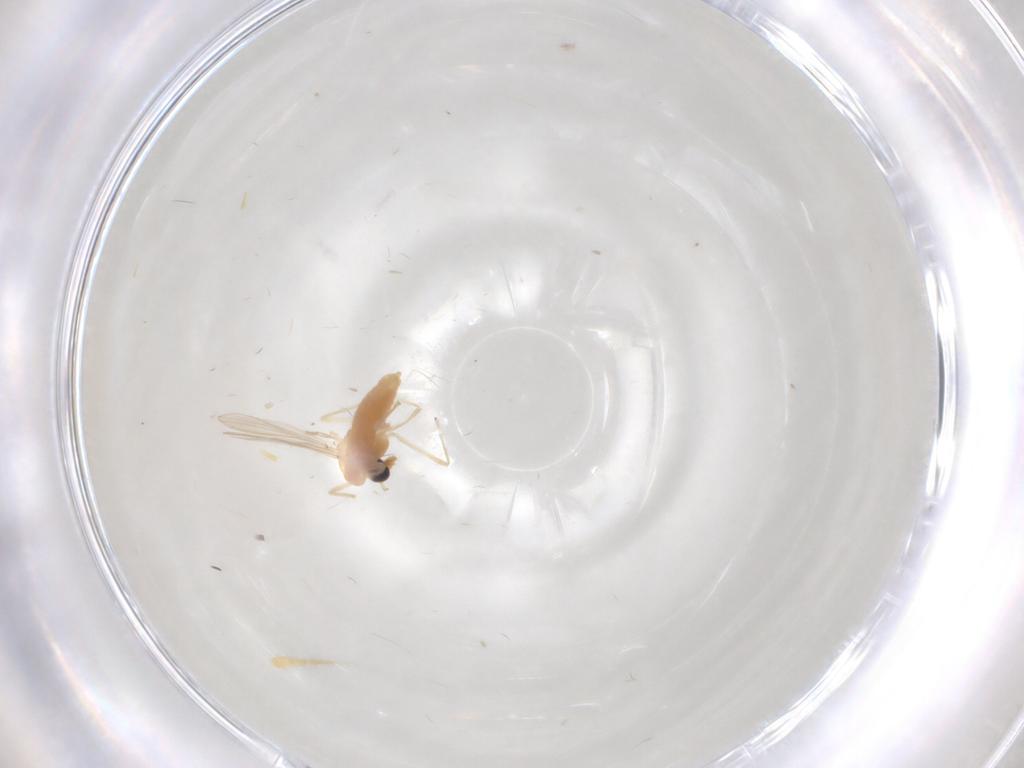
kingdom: Animalia
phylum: Arthropoda
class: Insecta
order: Diptera
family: Chironomidae
